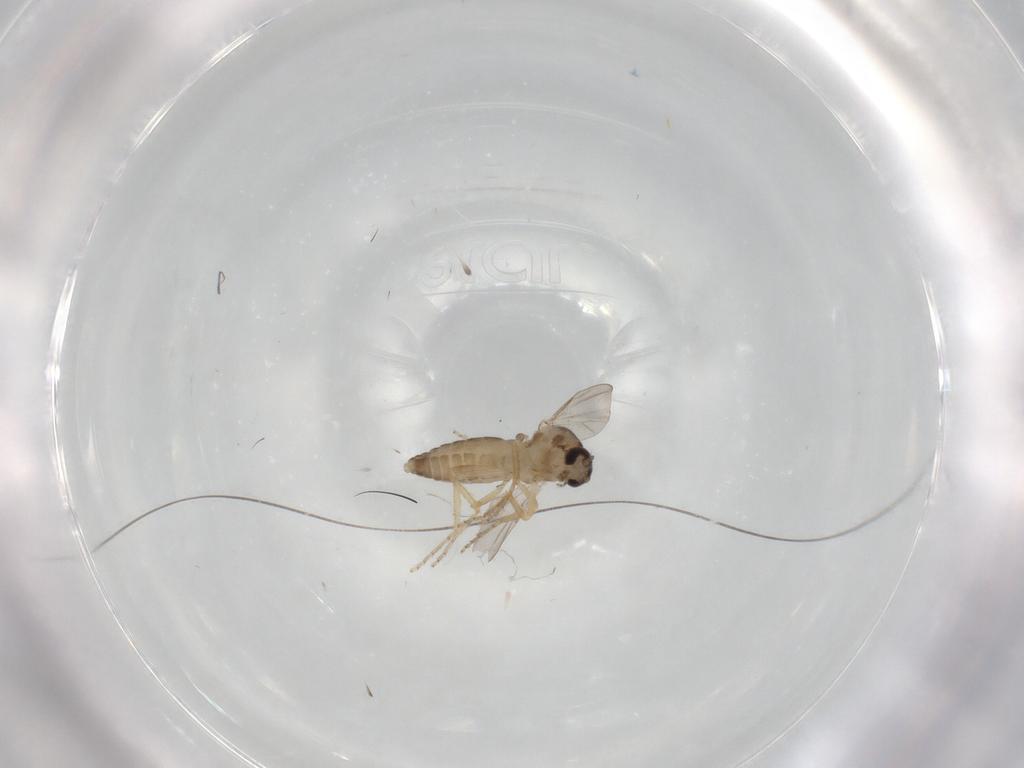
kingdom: Animalia
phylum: Arthropoda
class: Insecta
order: Diptera
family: Ceratopogonidae
